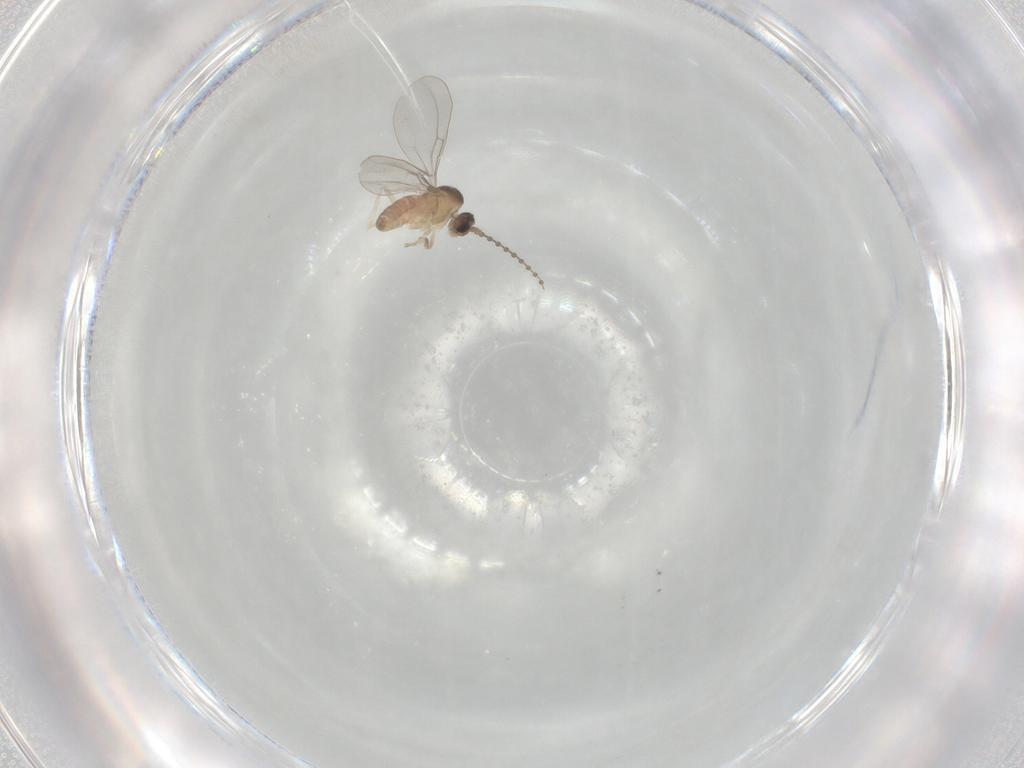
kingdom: Animalia
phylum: Arthropoda
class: Insecta
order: Diptera
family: Cecidomyiidae
